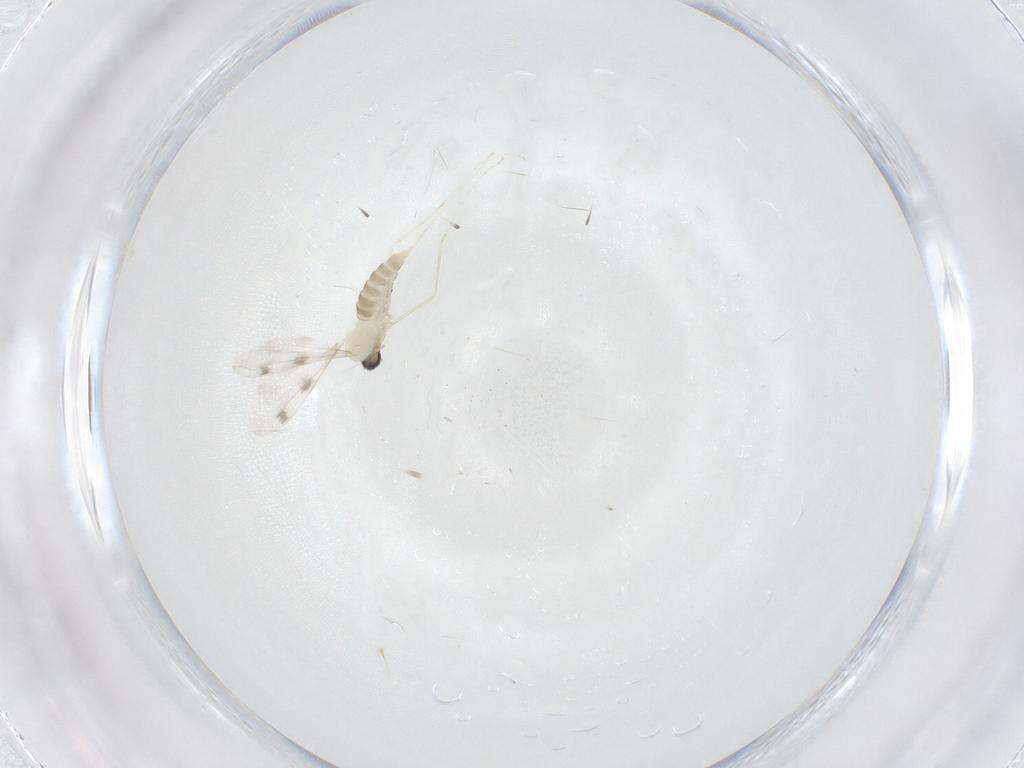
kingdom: Animalia
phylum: Arthropoda
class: Insecta
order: Diptera
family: Cecidomyiidae
